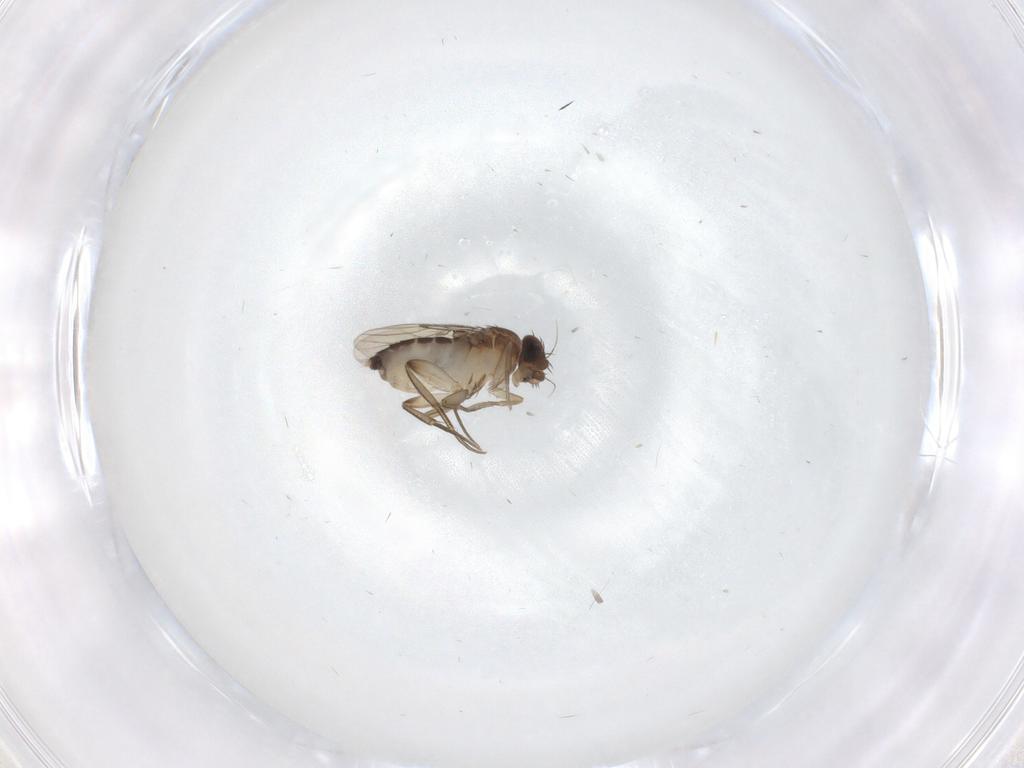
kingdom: Animalia
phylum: Arthropoda
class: Insecta
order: Diptera
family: Phoridae
